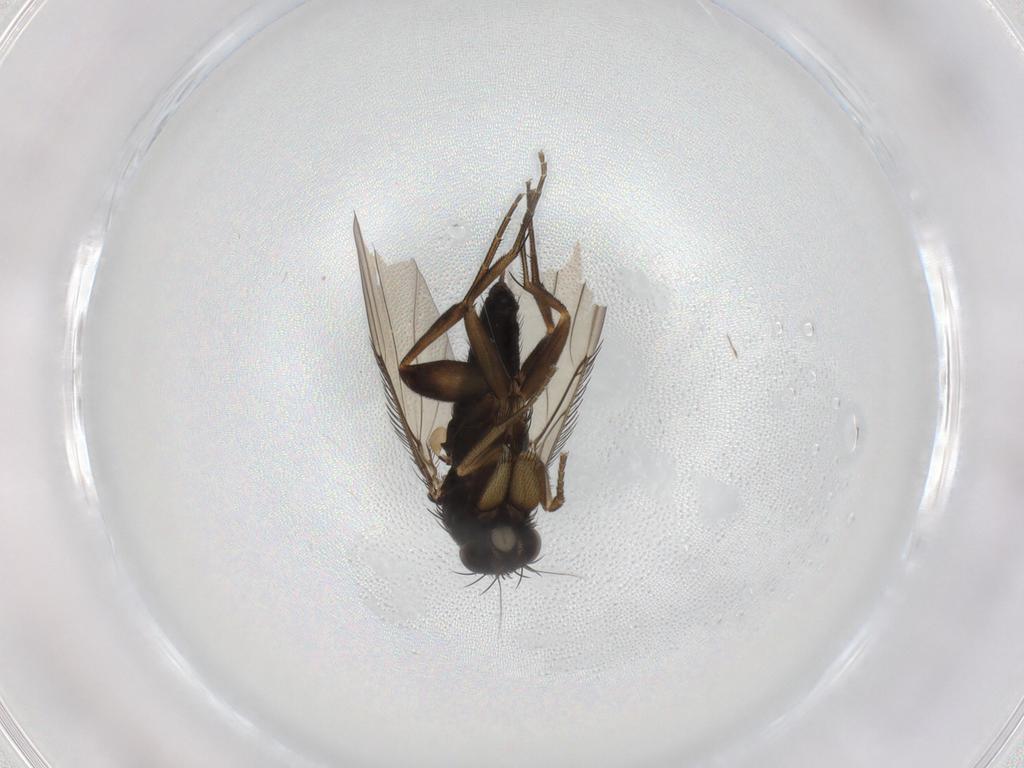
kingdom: Animalia
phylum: Arthropoda
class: Insecta
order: Diptera
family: Phoridae
